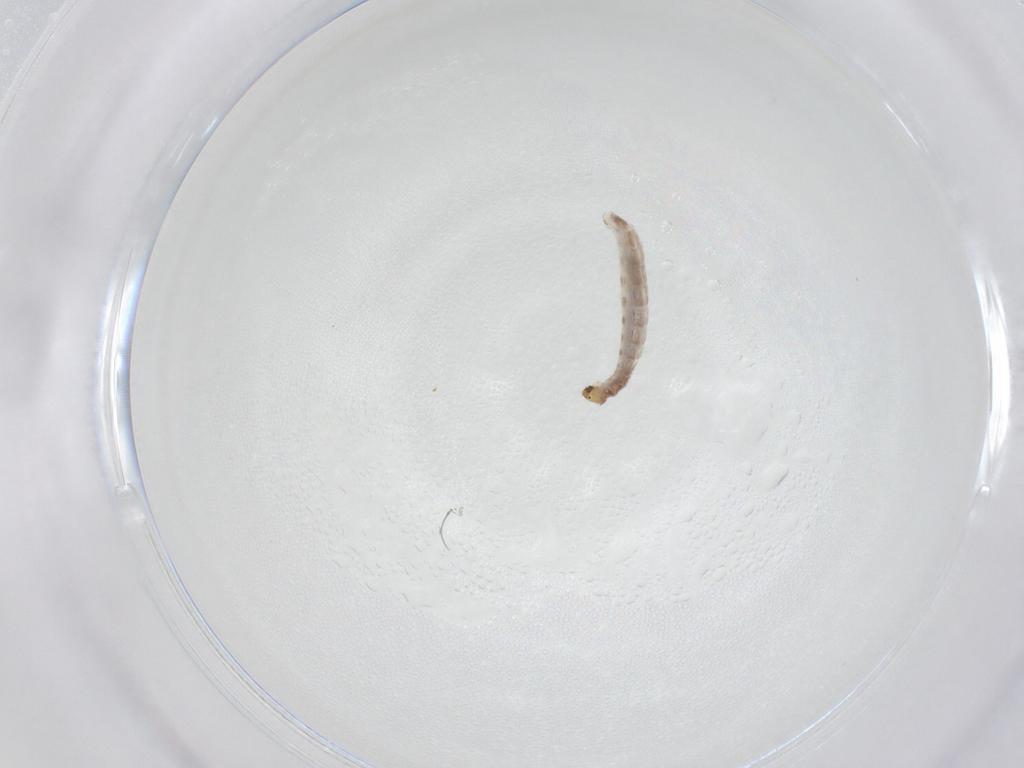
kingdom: Animalia
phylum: Arthropoda
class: Insecta
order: Diptera
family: Chironomidae
